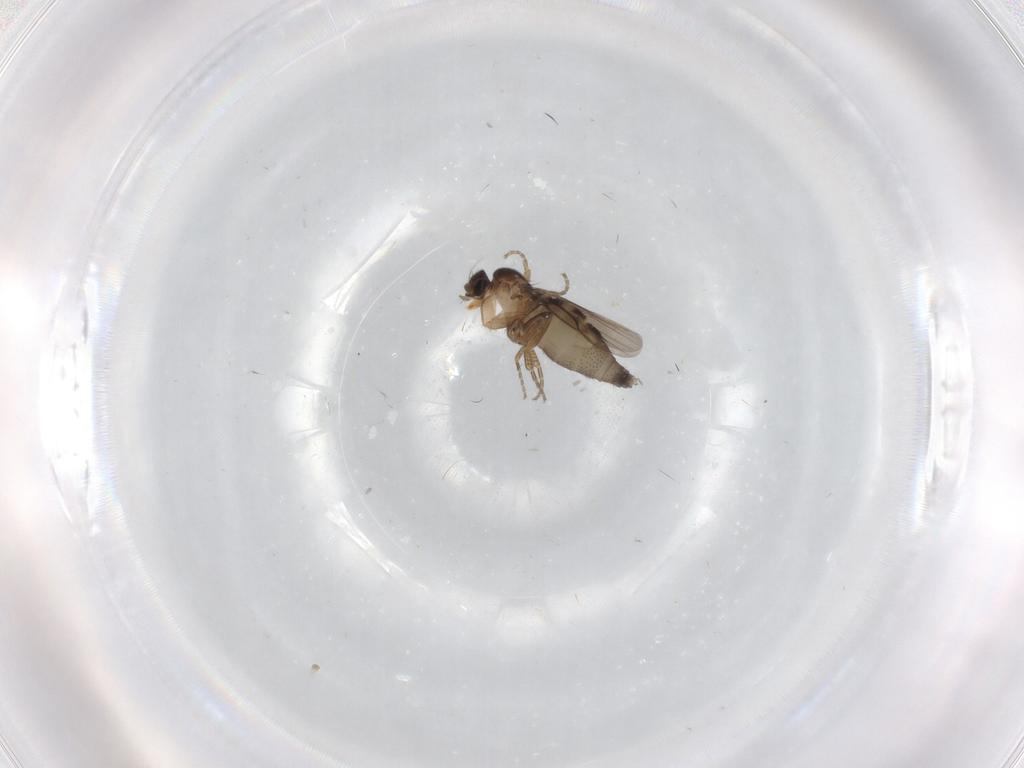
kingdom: Animalia
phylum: Arthropoda
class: Insecta
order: Diptera
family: Phoridae
